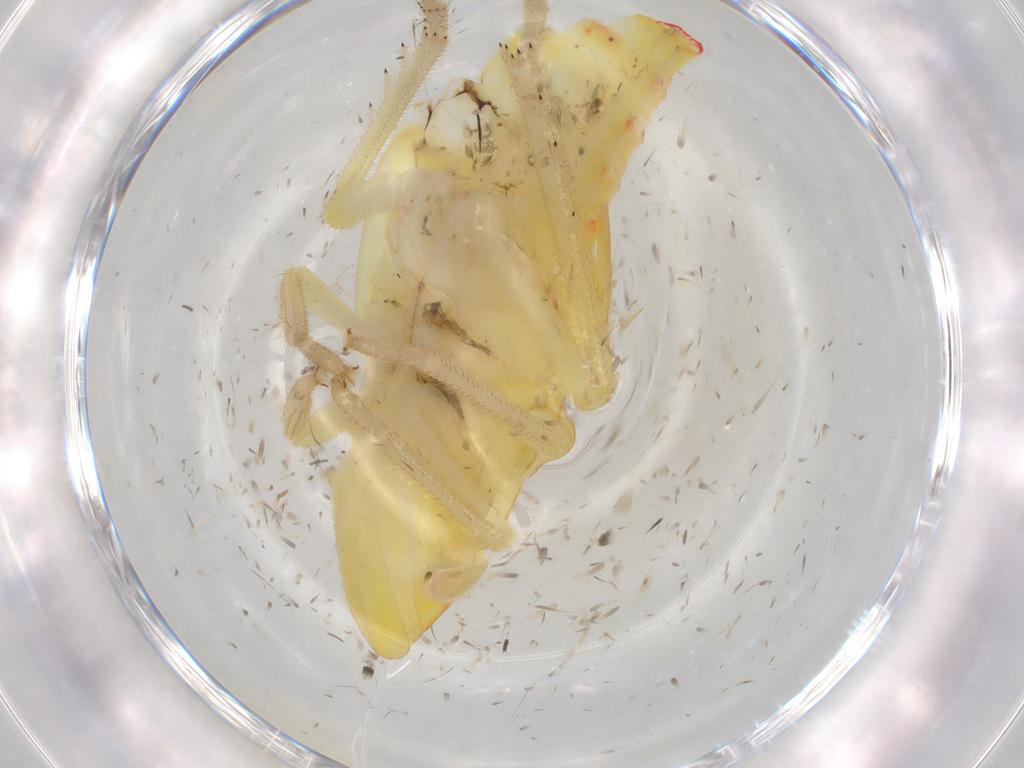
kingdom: Animalia
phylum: Arthropoda
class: Insecta
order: Hemiptera
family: Tropiduchidae
